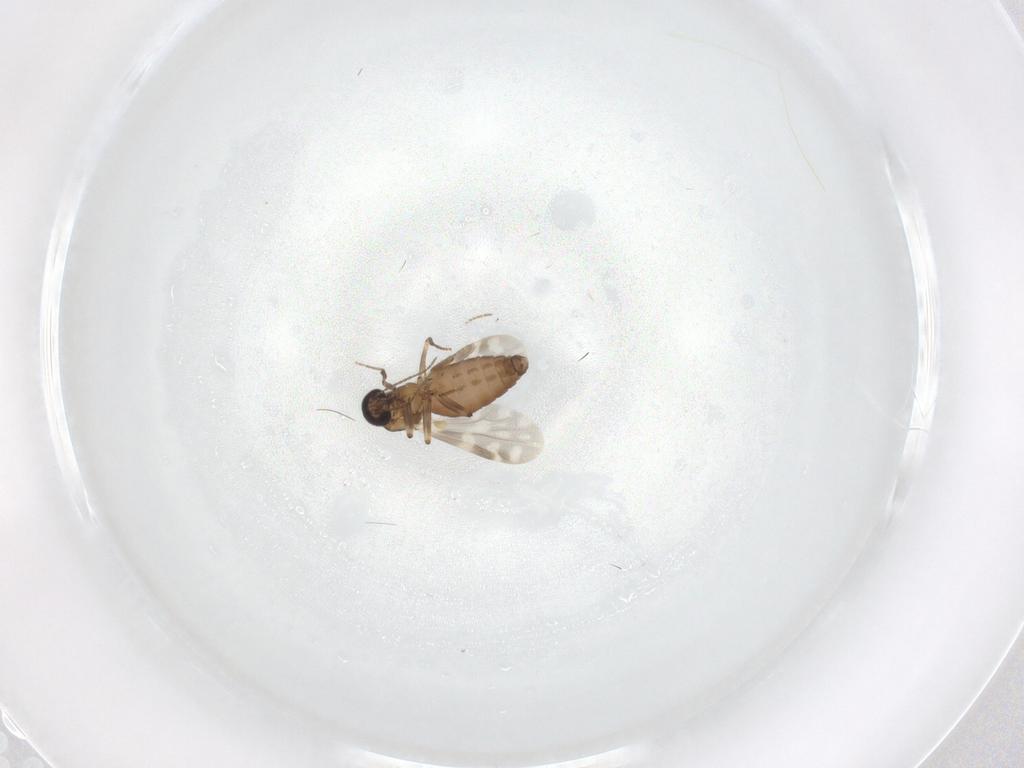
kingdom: Animalia
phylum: Arthropoda
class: Insecta
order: Diptera
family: Ceratopogonidae
